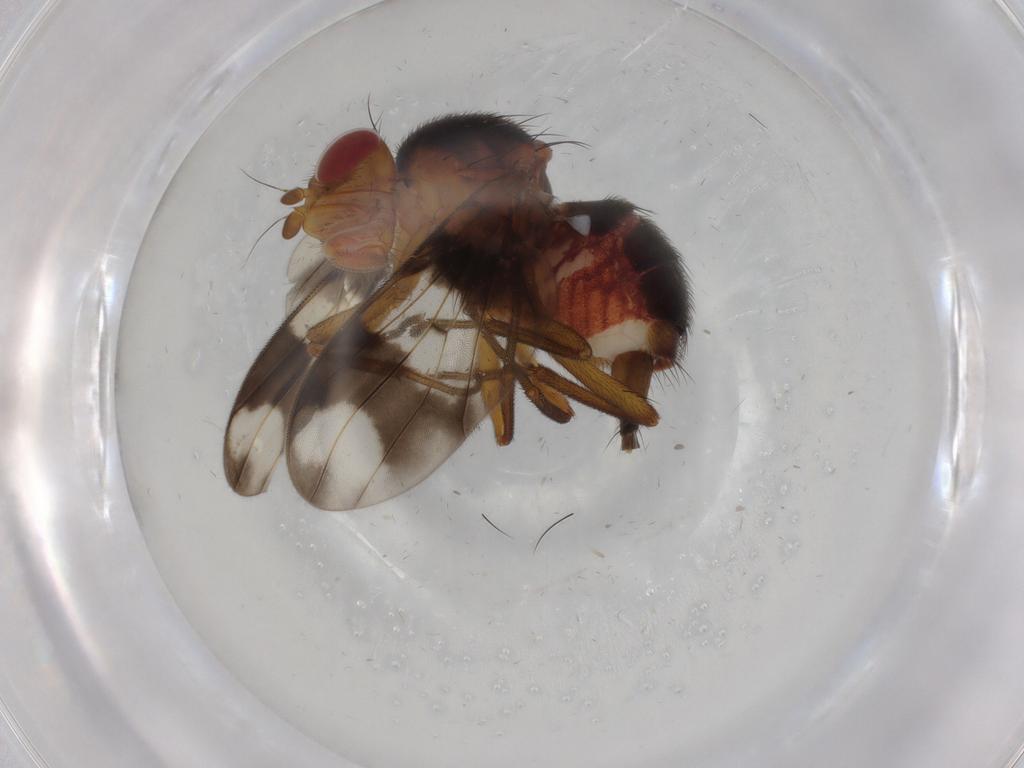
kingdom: Animalia
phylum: Arthropoda
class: Insecta
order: Diptera
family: Richardiidae
